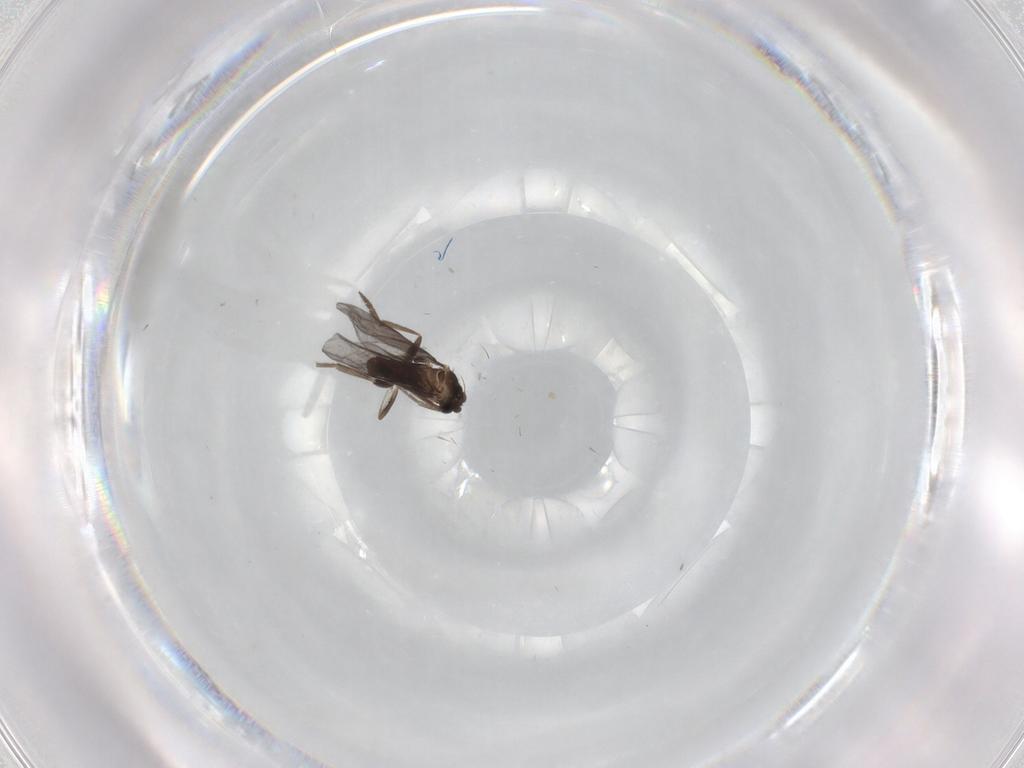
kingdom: Animalia
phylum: Arthropoda
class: Insecta
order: Diptera
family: Phoridae
